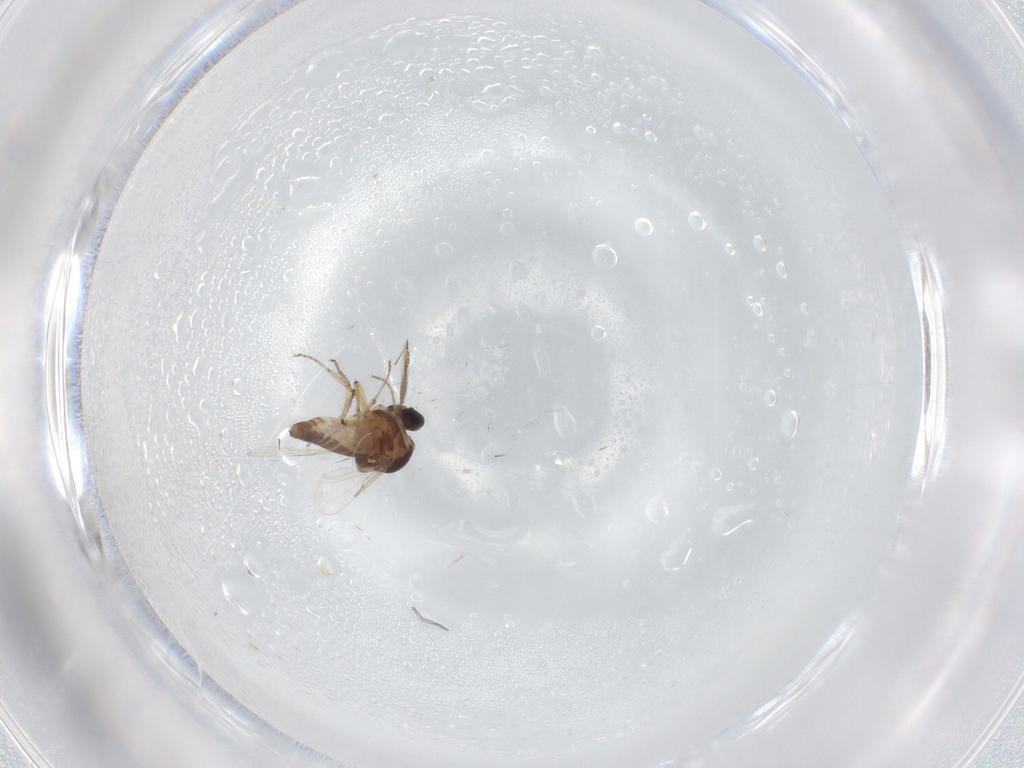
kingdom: Animalia
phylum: Arthropoda
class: Insecta
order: Diptera
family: Ceratopogonidae
